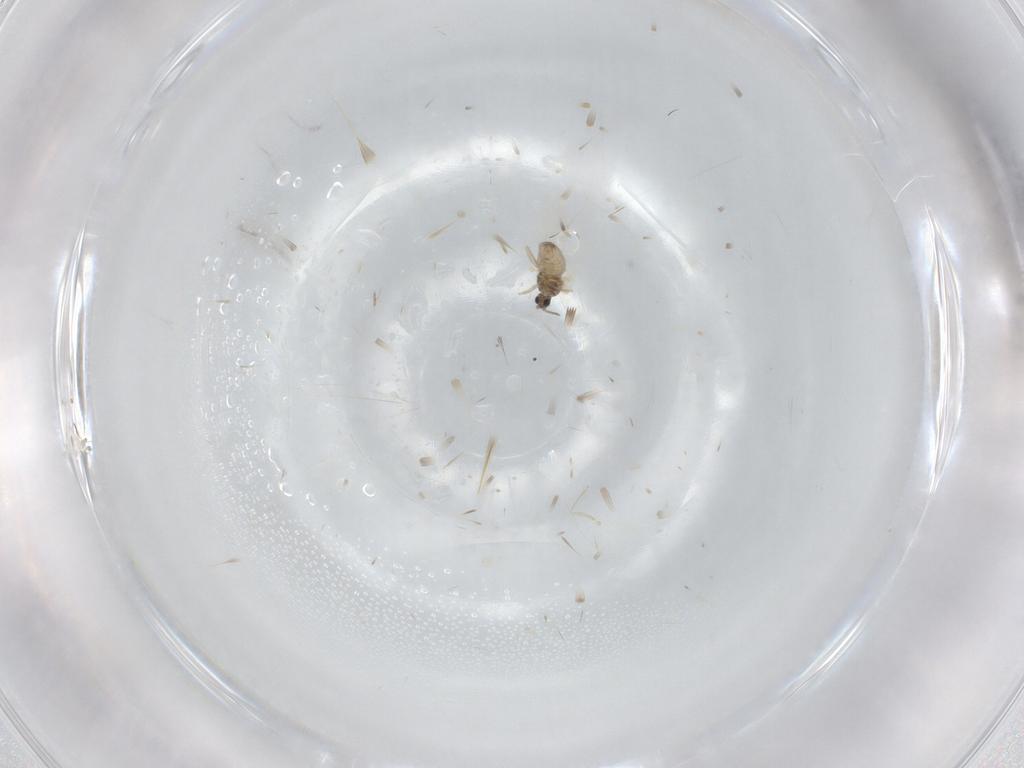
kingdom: Animalia
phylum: Arthropoda
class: Insecta
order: Diptera
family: Cecidomyiidae
